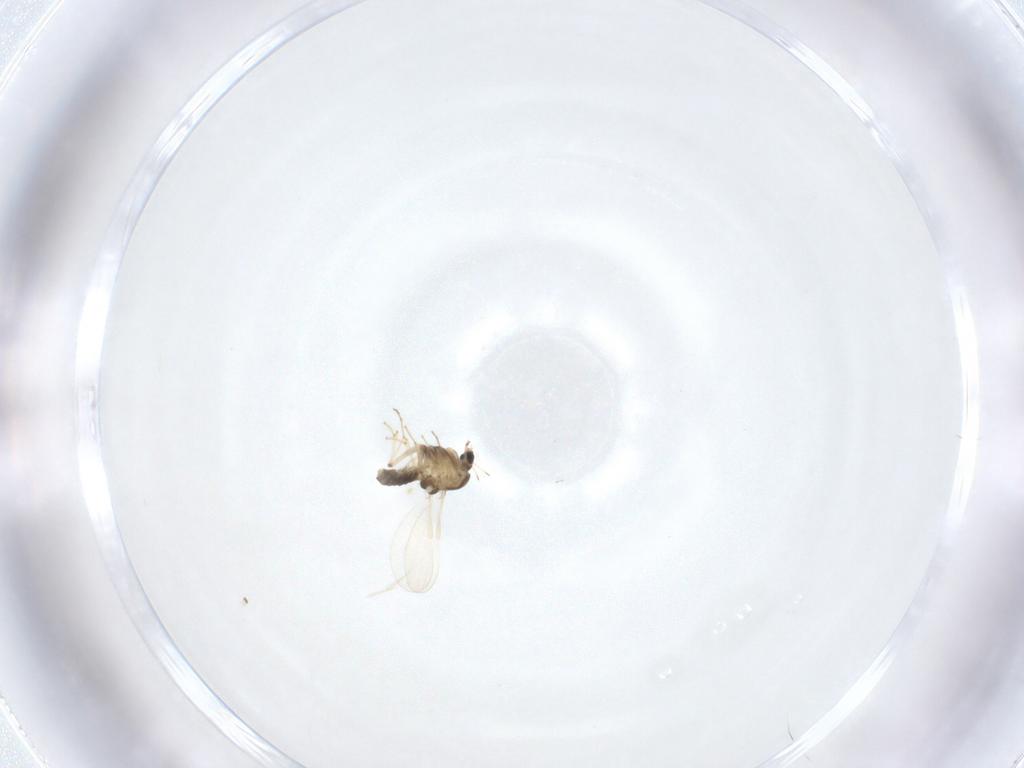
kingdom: Animalia
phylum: Arthropoda
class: Insecta
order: Diptera
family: Chironomidae
